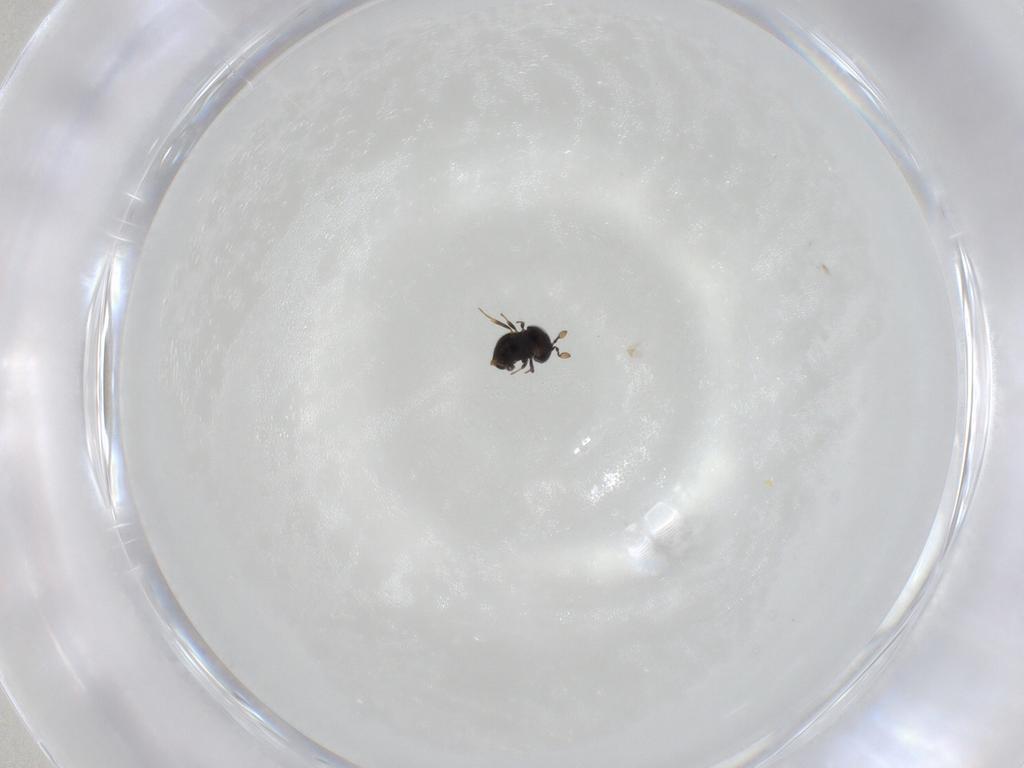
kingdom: Animalia
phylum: Arthropoda
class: Insecta
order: Hymenoptera
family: Scelionidae
